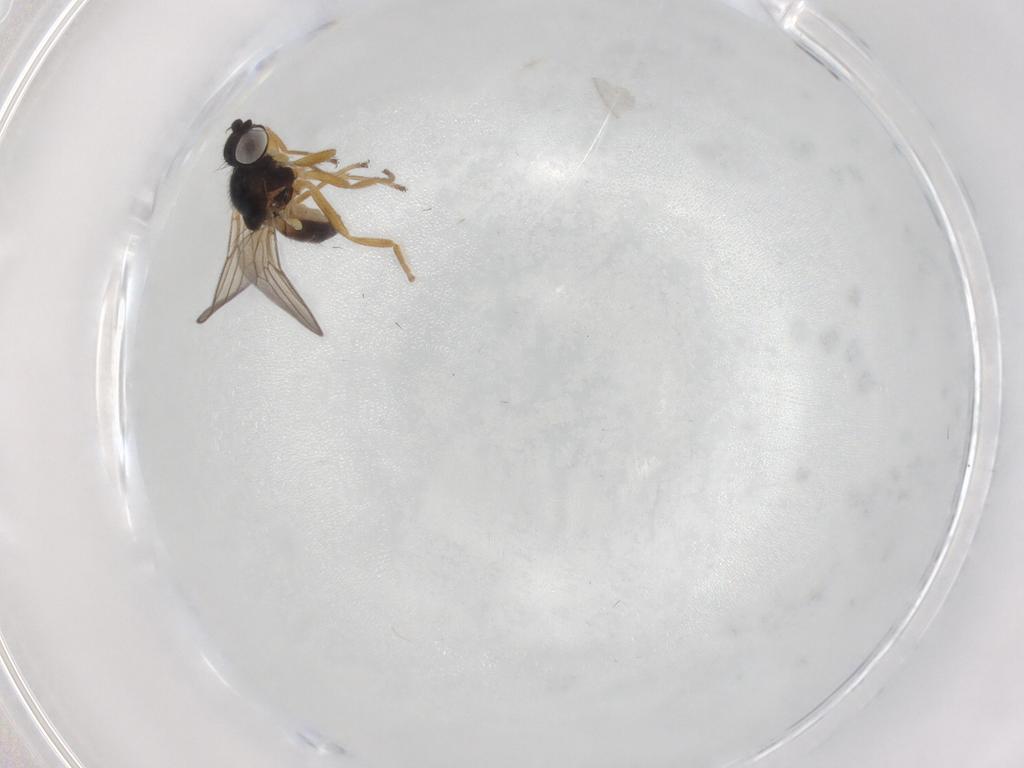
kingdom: Animalia
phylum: Arthropoda
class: Insecta
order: Diptera
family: Chloropidae
